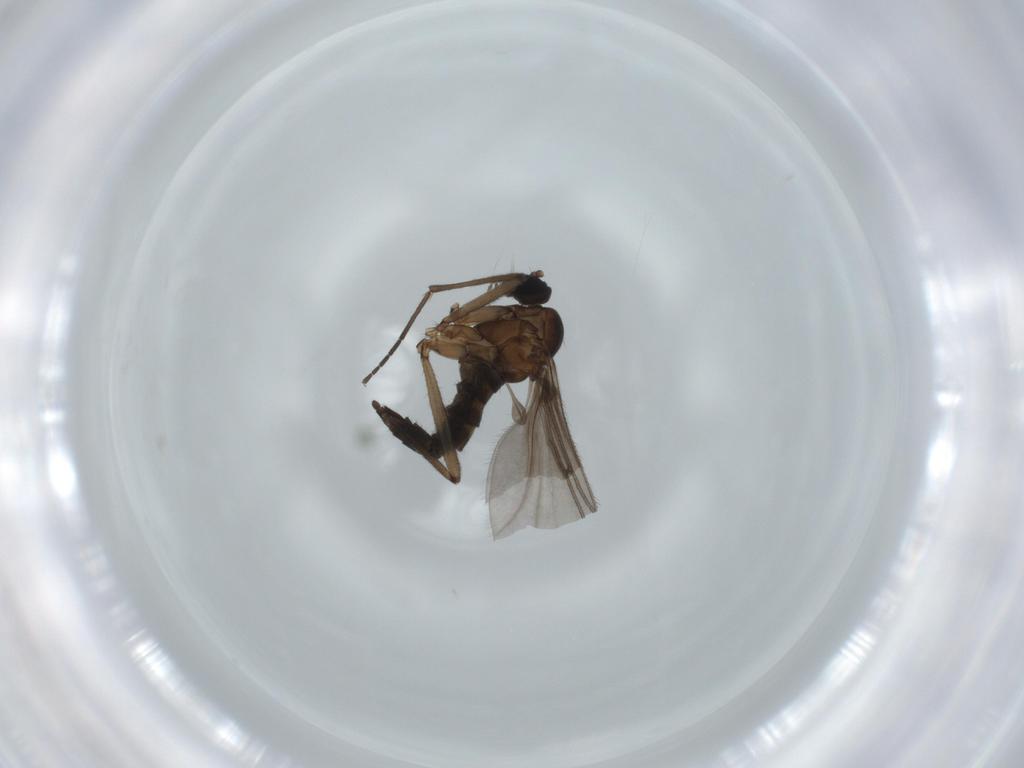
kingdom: Animalia
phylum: Arthropoda
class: Insecta
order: Diptera
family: Sciaridae
